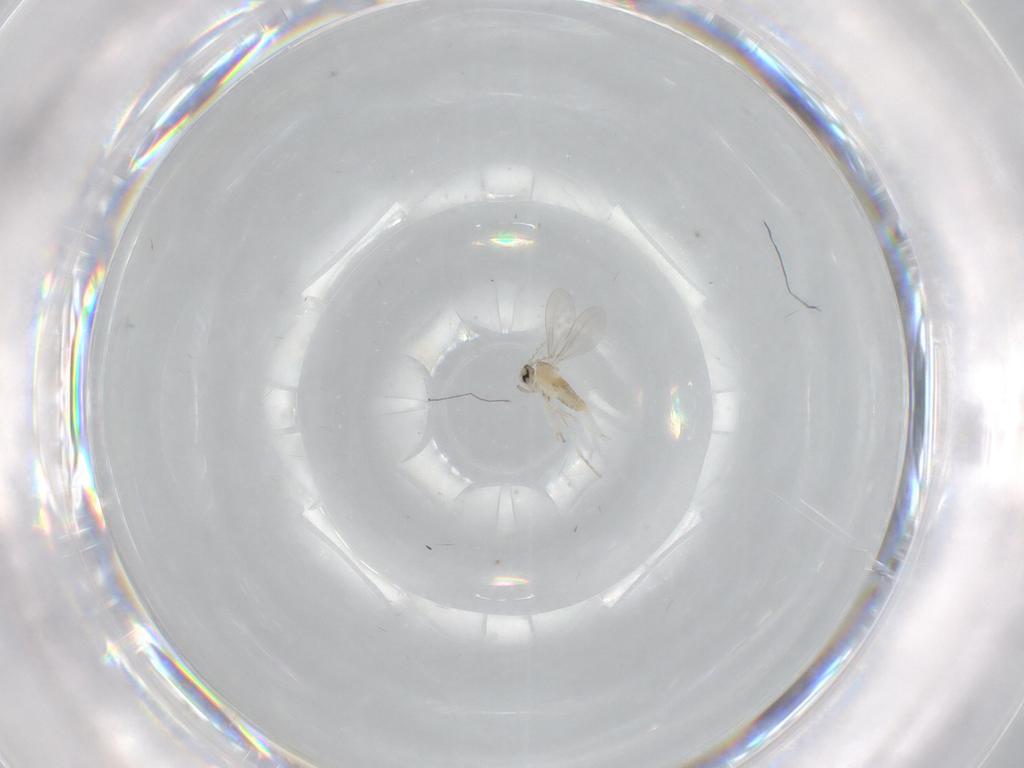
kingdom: Animalia
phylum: Arthropoda
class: Insecta
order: Diptera
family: Cecidomyiidae
